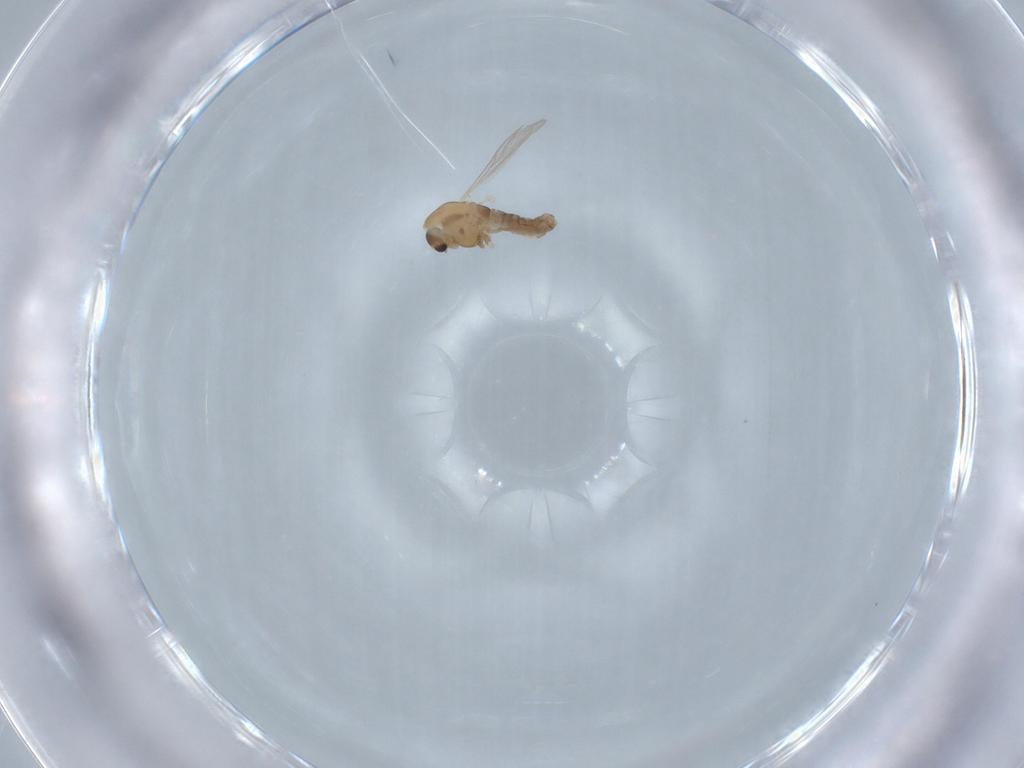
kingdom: Animalia
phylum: Arthropoda
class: Insecta
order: Diptera
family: Chironomidae
